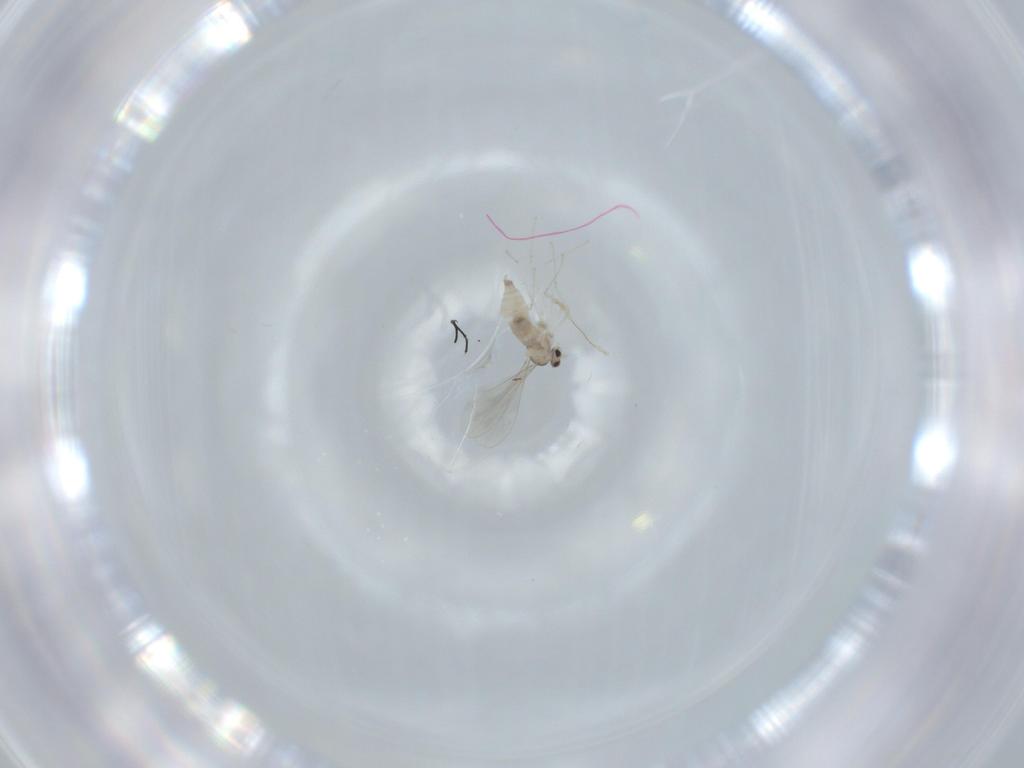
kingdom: Animalia
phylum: Arthropoda
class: Insecta
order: Diptera
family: Cecidomyiidae
